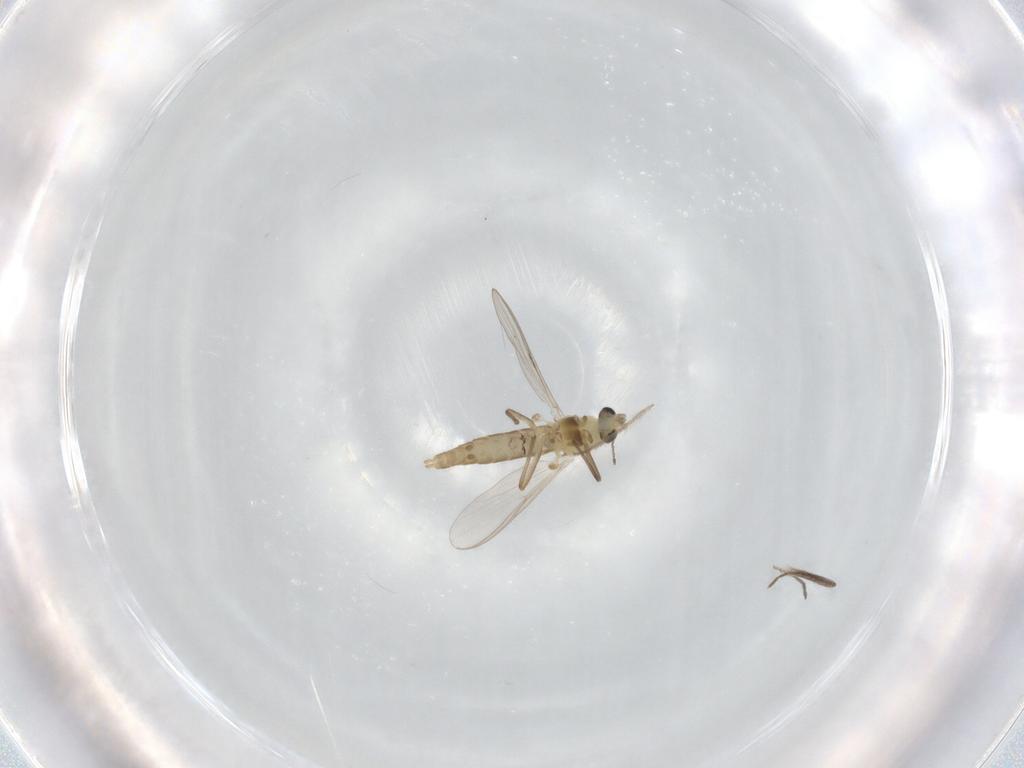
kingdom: Animalia
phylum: Arthropoda
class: Insecta
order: Diptera
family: Chironomidae
